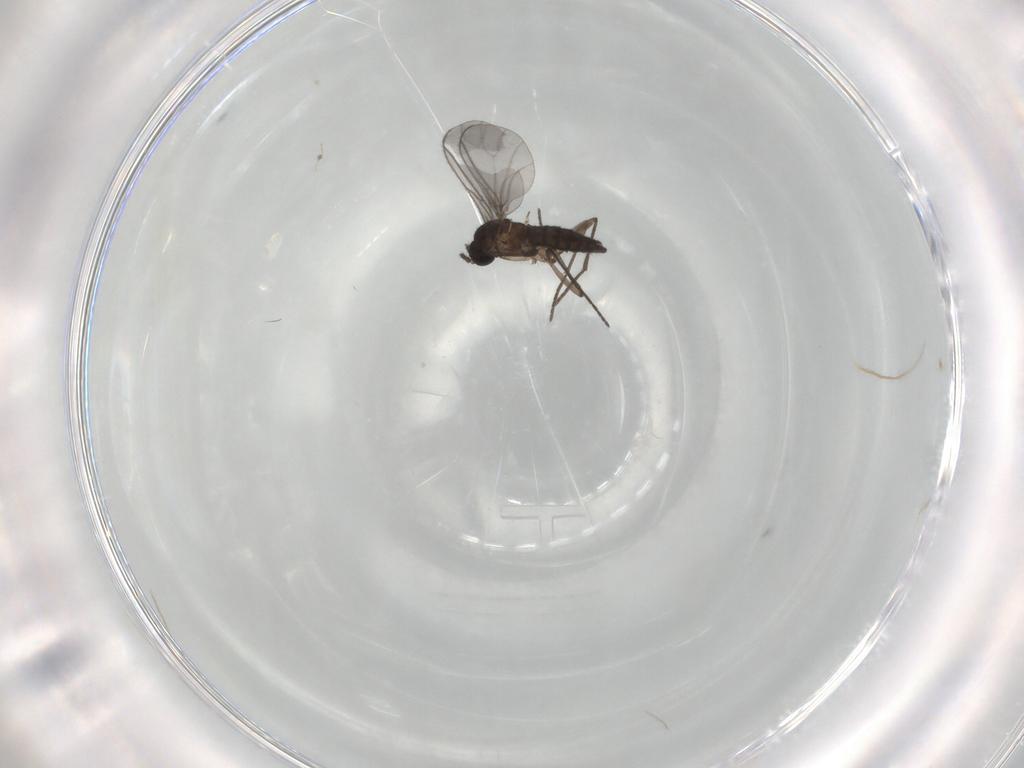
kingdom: Animalia
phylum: Arthropoda
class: Insecta
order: Diptera
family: Sciaridae
